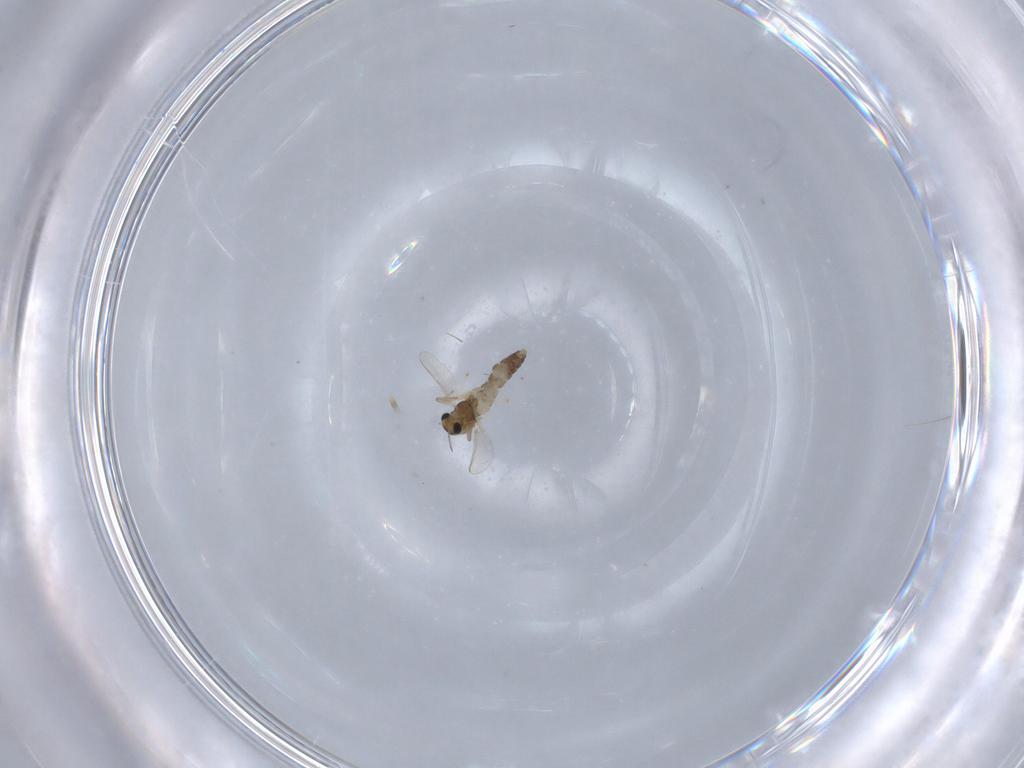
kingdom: Animalia
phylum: Arthropoda
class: Insecta
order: Diptera
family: Chironomidae
